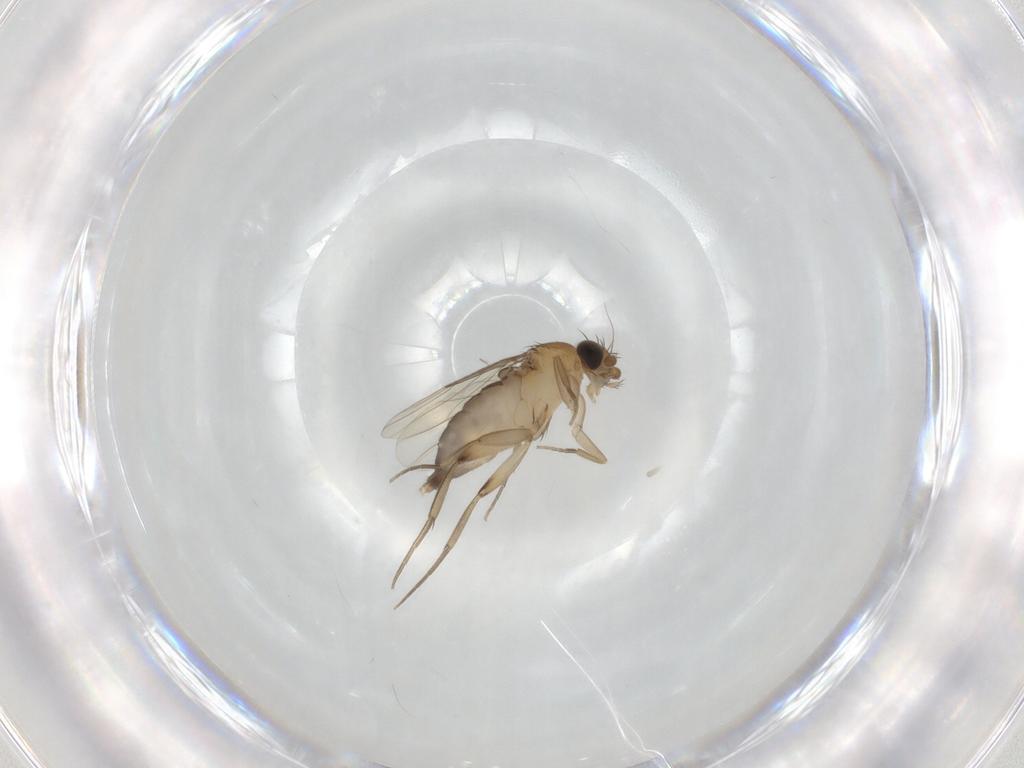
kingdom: Animalia
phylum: Arthropoda
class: Insecta
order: Diptera
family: Phoridae
